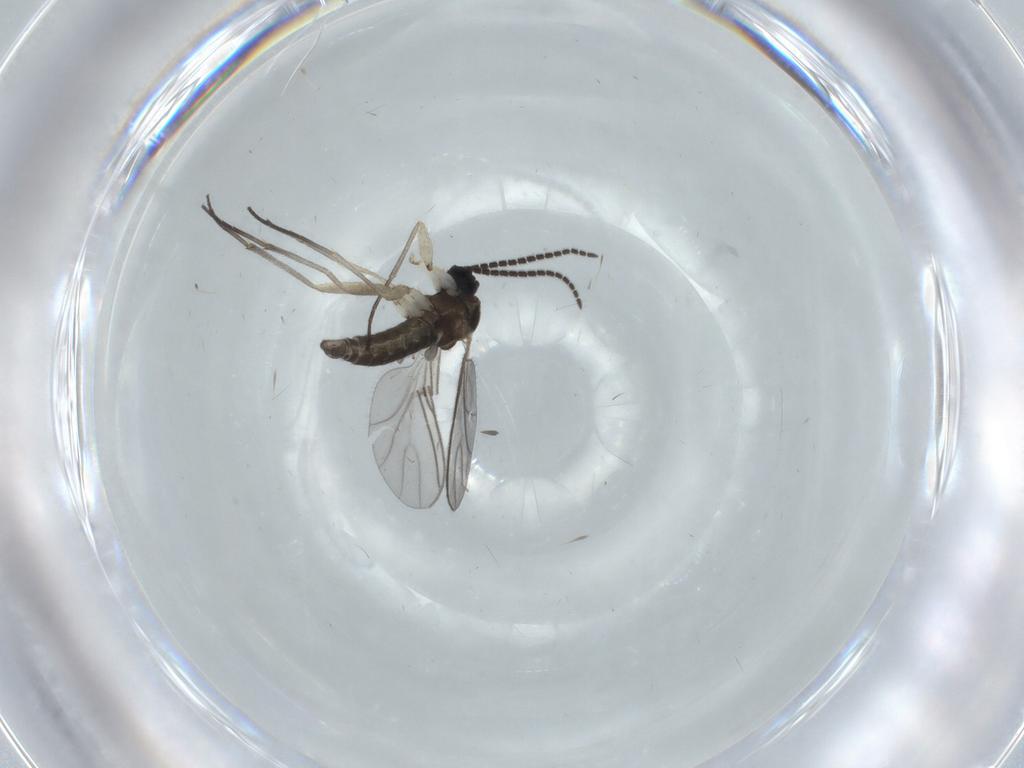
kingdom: Animalia
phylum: Arthropoda
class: Insecta
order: Diptera
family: Sciaridae
